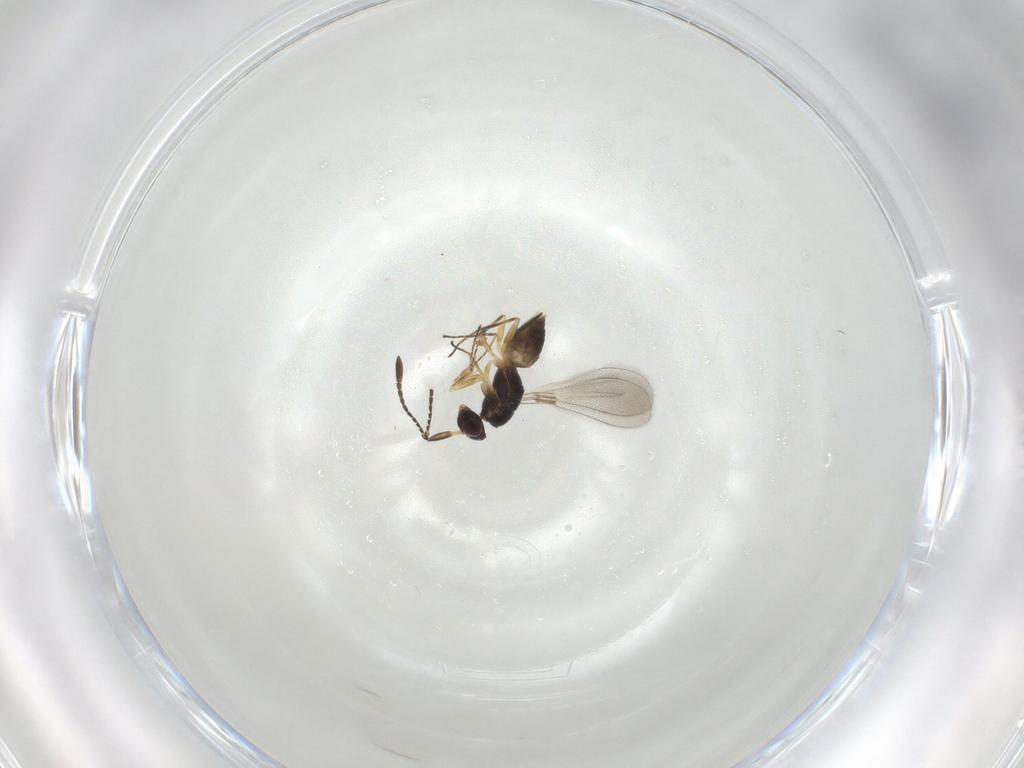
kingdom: Animalia
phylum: Arthropoda
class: Insecta
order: Hymenoptera
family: Mymaridae
